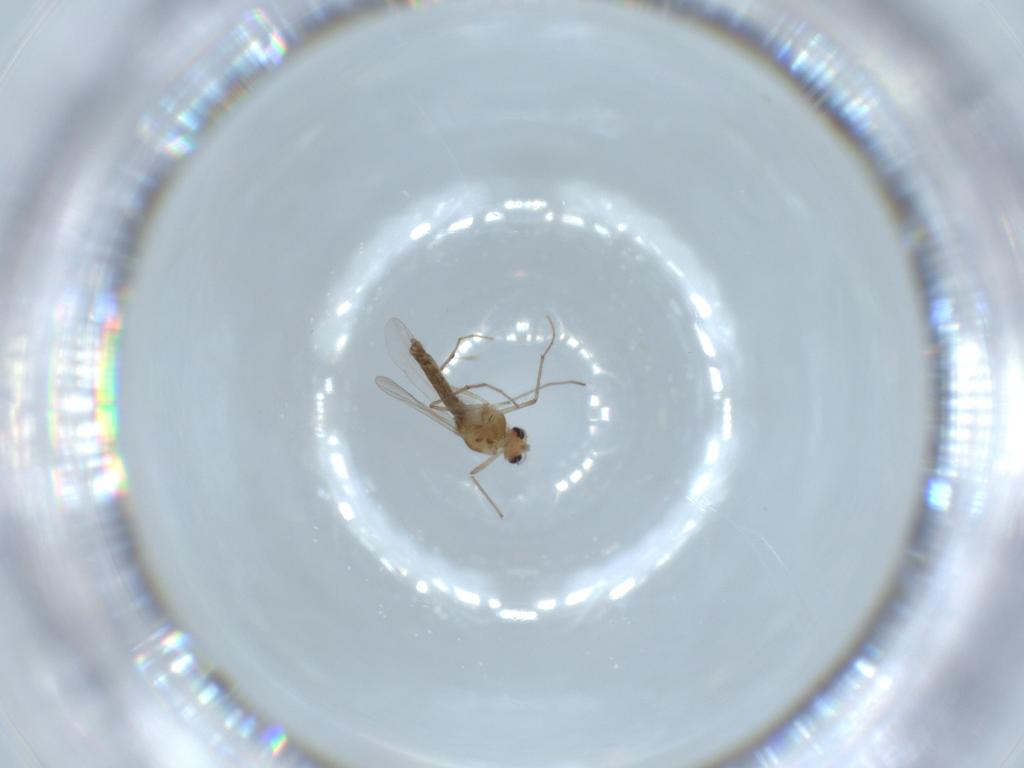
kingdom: Animalia
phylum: Arthropoda
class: Insecta
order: Diptera
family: Chironomidae
